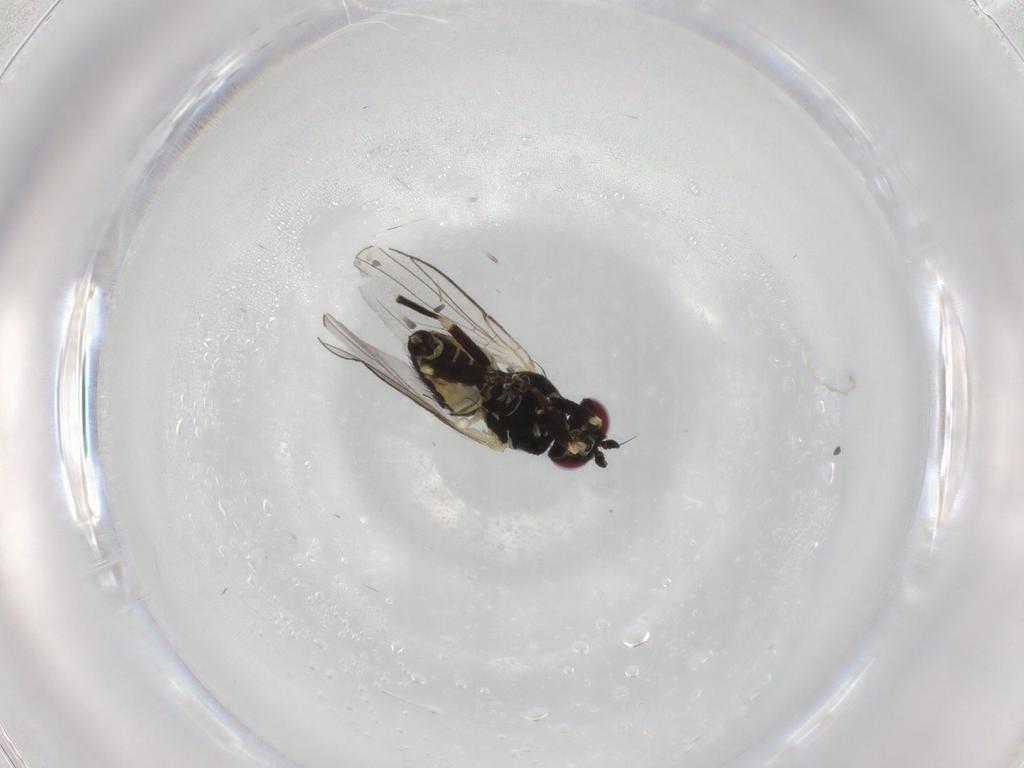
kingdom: Animalia
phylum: Arthropoda
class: Insecta
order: Diptera
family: Agromyzidae
